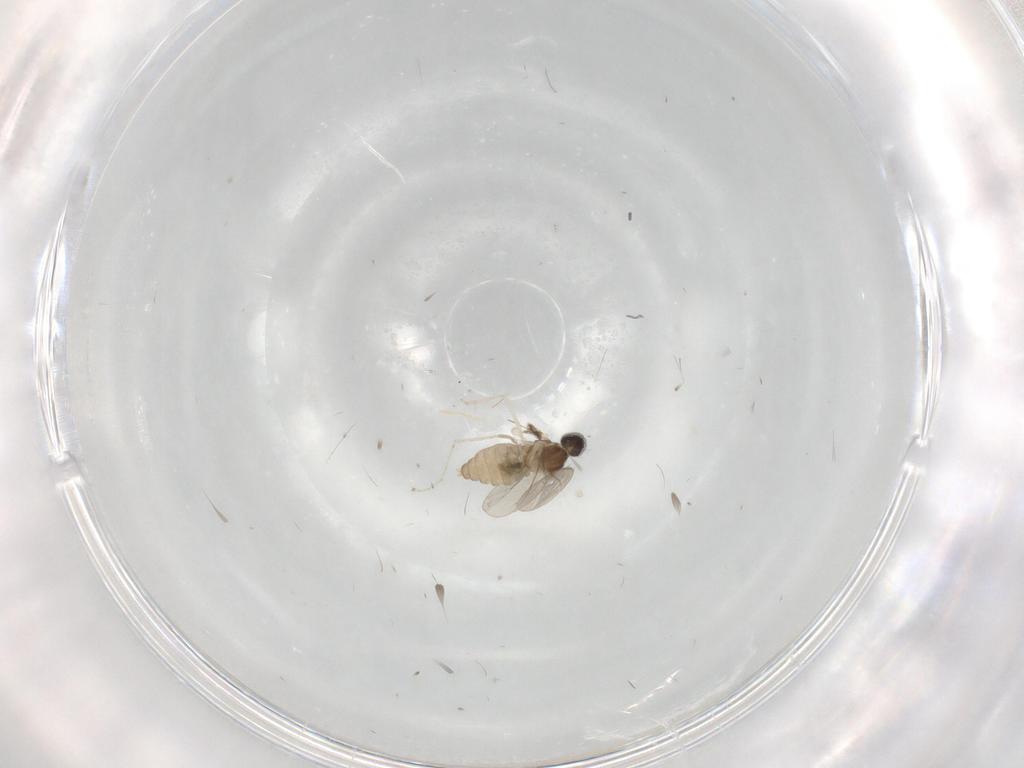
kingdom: Animalia
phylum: Arthropoda
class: Insecta
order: Diptera
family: Cecidomyiidae
